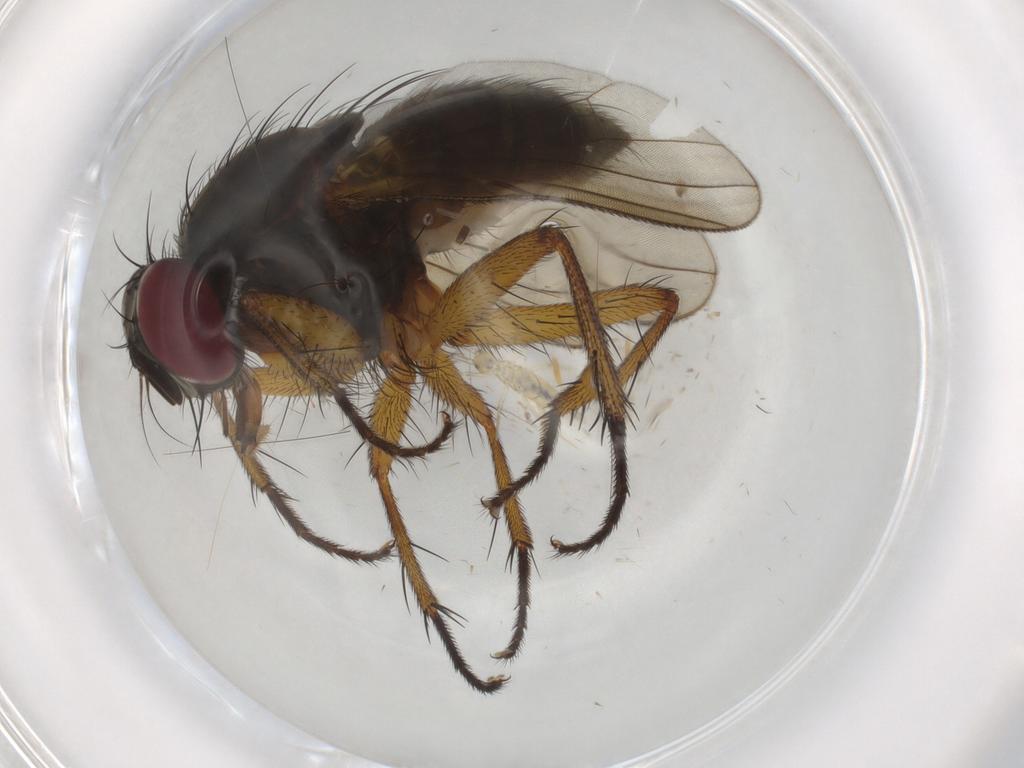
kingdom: Animalia
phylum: Arthropoda
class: Insecta
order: Diptera
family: Muscidae
